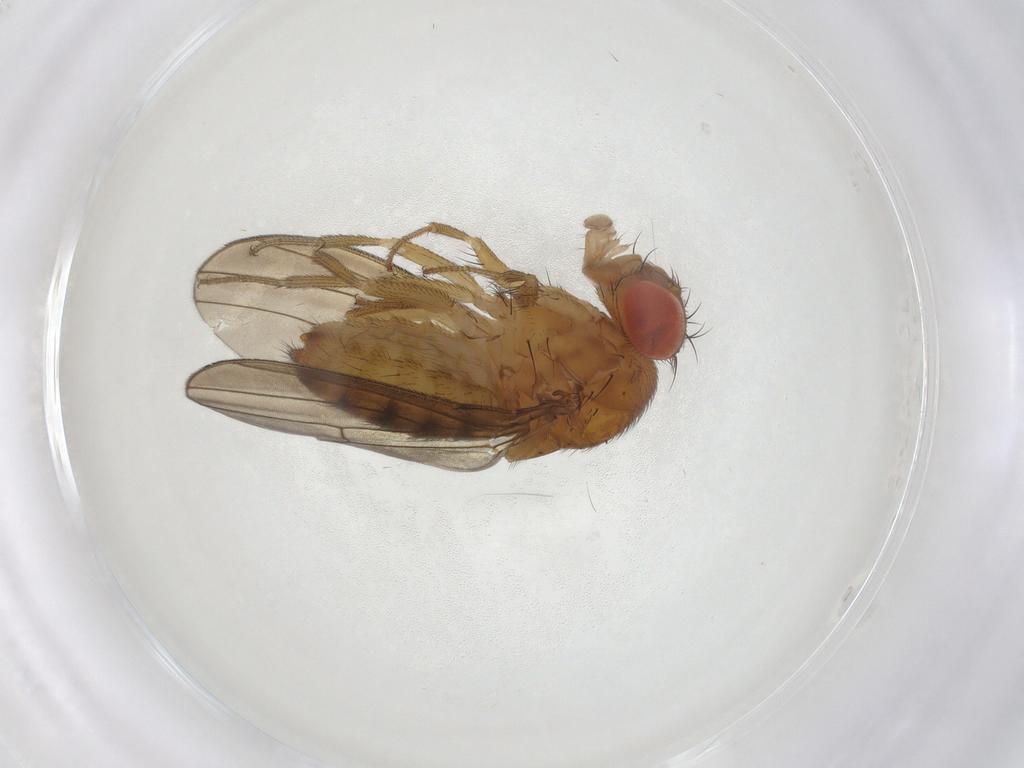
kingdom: Animalia
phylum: Arthropoda
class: Insecta
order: Diptera
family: Drosophilidae
